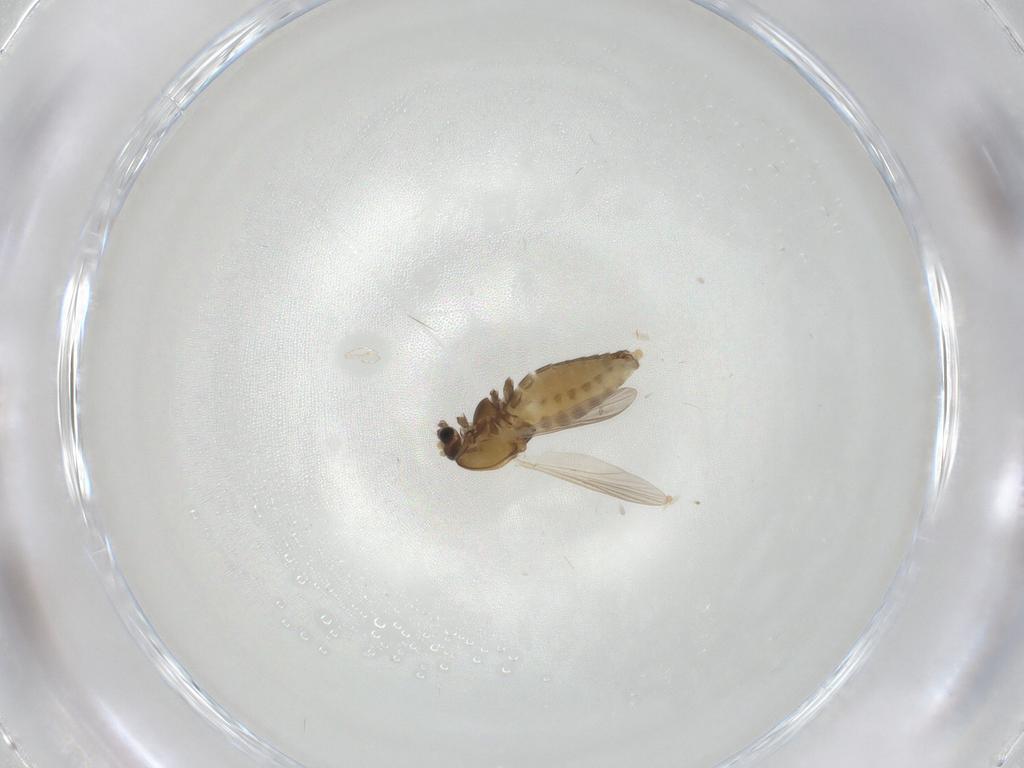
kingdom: Animalia
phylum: Arthropoda
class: Insecta
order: Diptera
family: Chironomidae
